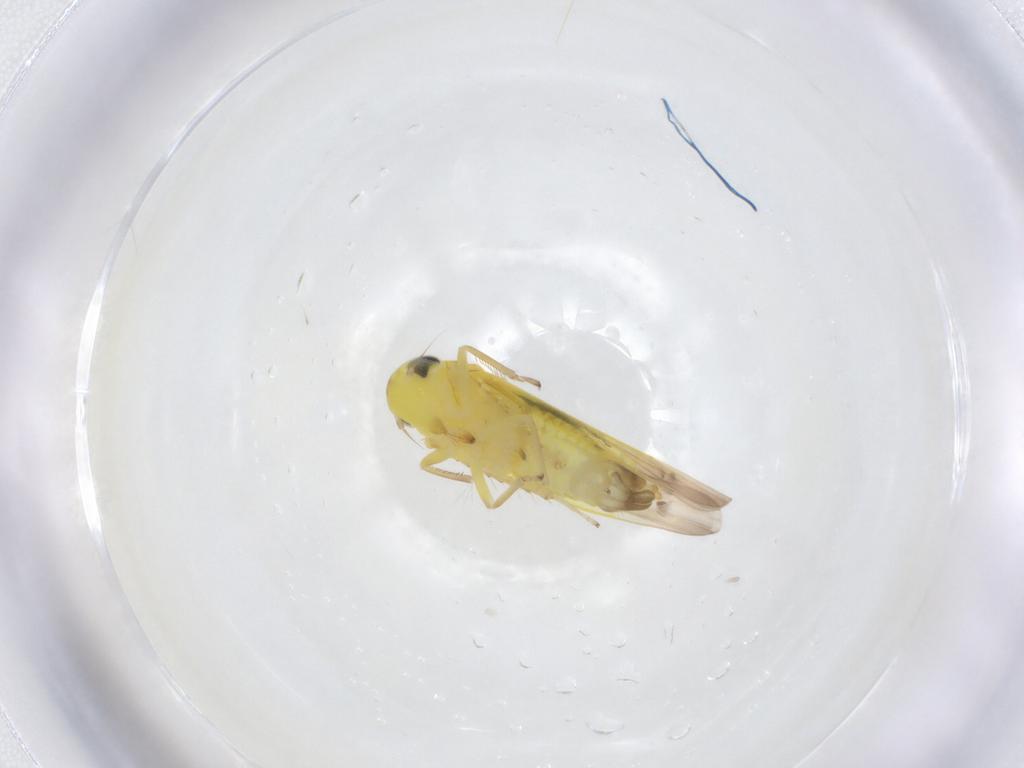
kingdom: Animalia
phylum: Arthropoda
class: Insecta
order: Hemiptera
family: Cicadellidae
